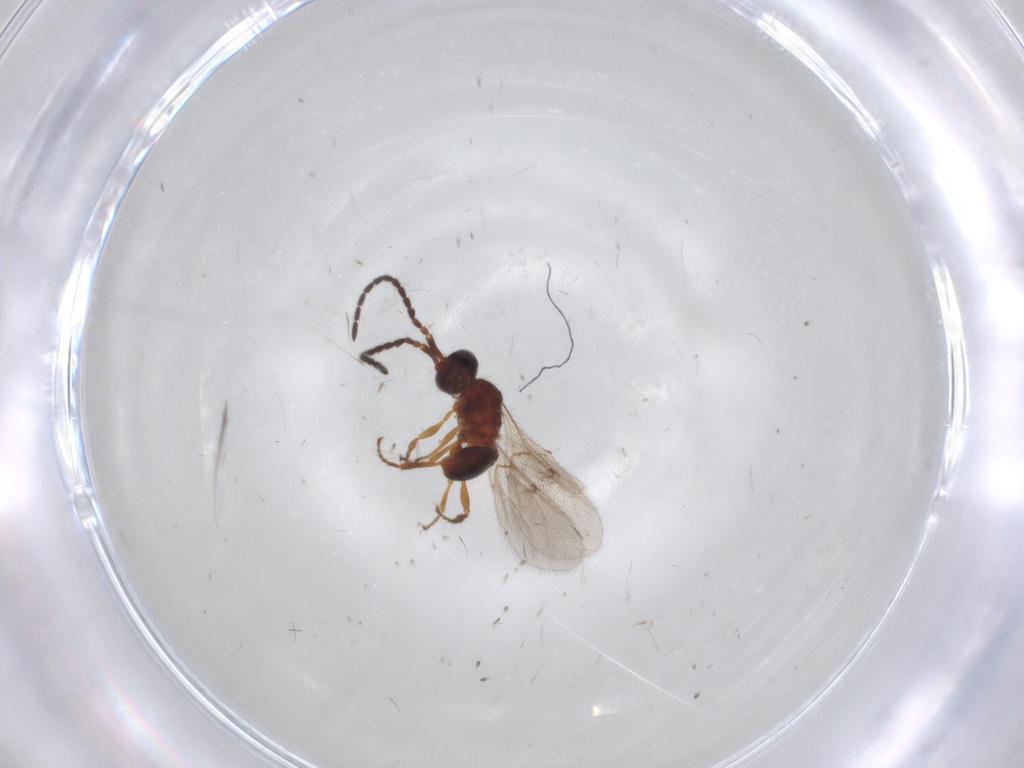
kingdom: Animalia
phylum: Arthropoda
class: Insecta
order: Hymenoptera
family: Diapriidae
